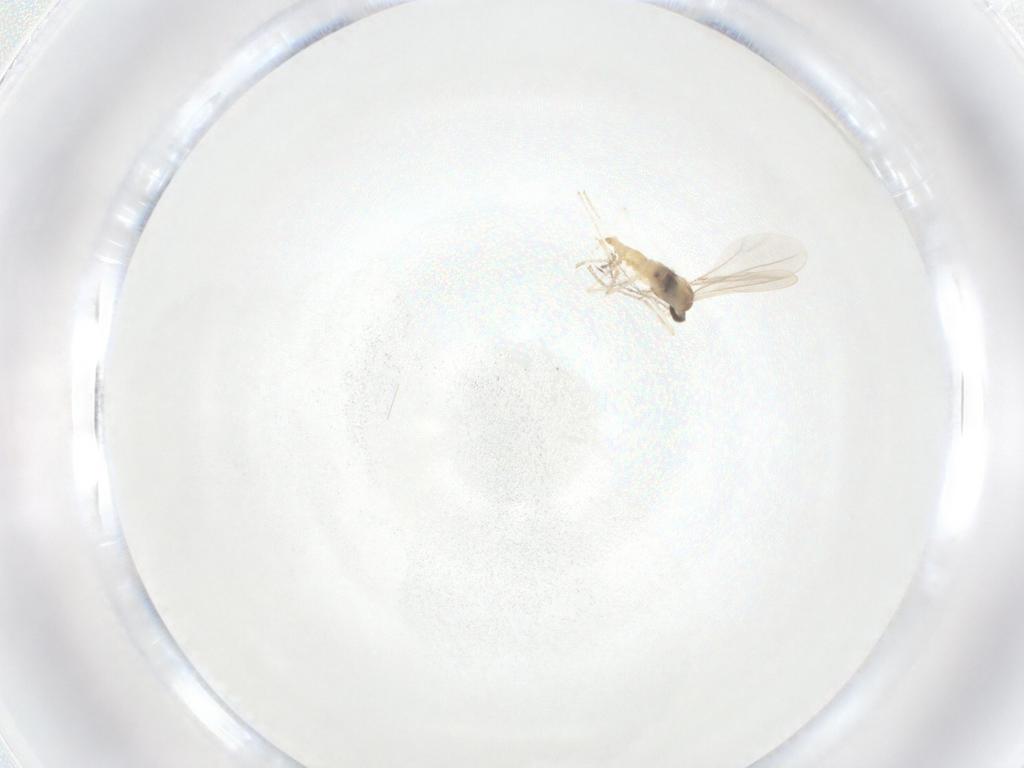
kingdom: Animalia
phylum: Arthropoda
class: Insecta
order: Diptera
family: Cecidomyiidae
